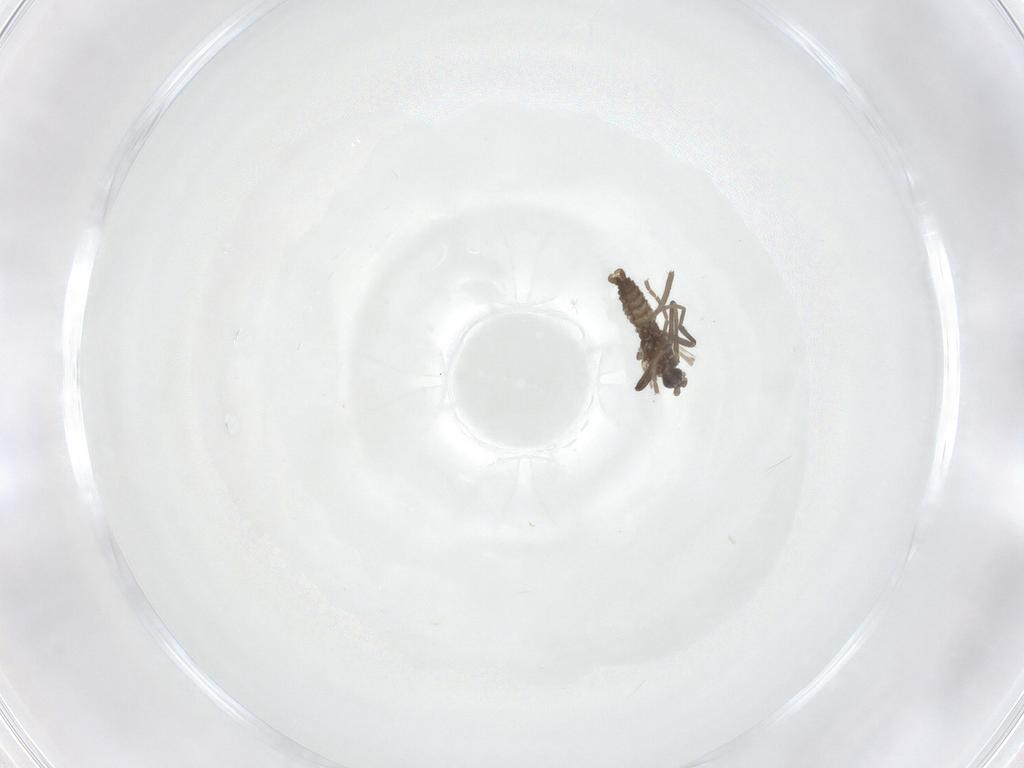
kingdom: Animalia
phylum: Arthropoda
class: Insecta
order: Diptera
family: Cecidomyiidae
